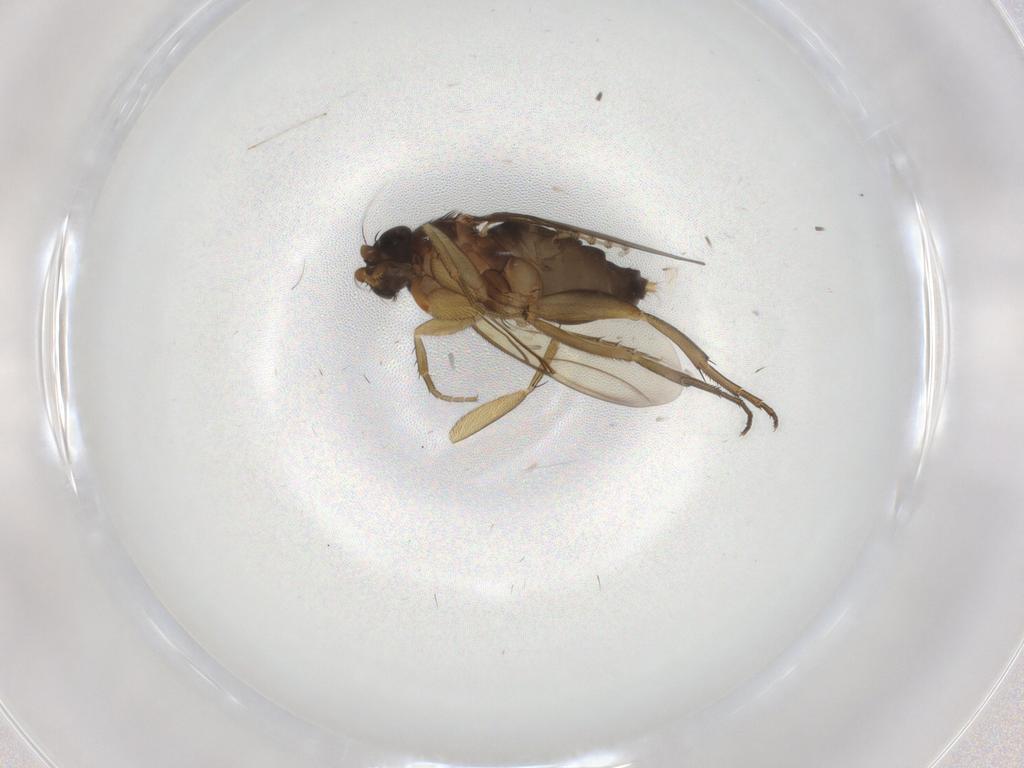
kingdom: Animalia
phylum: Arthropoda
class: Insecta
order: Diptera
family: Phoridae
